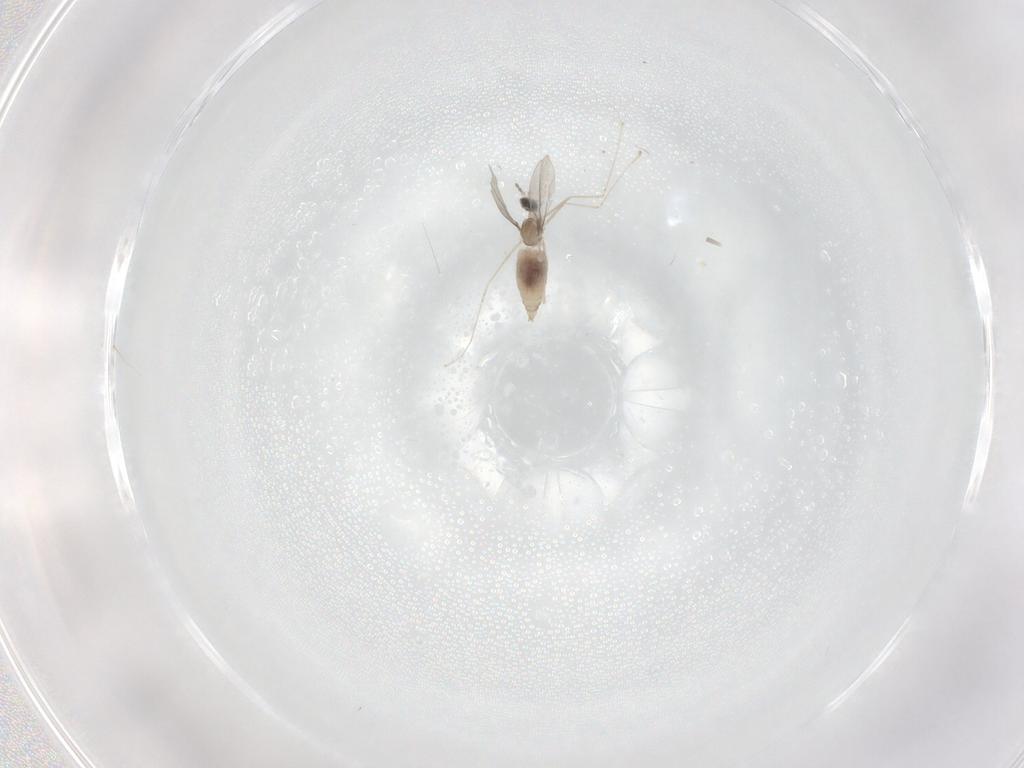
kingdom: Animalia
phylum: Arthropoda
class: Insecta
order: Diptera
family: Cecidomyiidae
